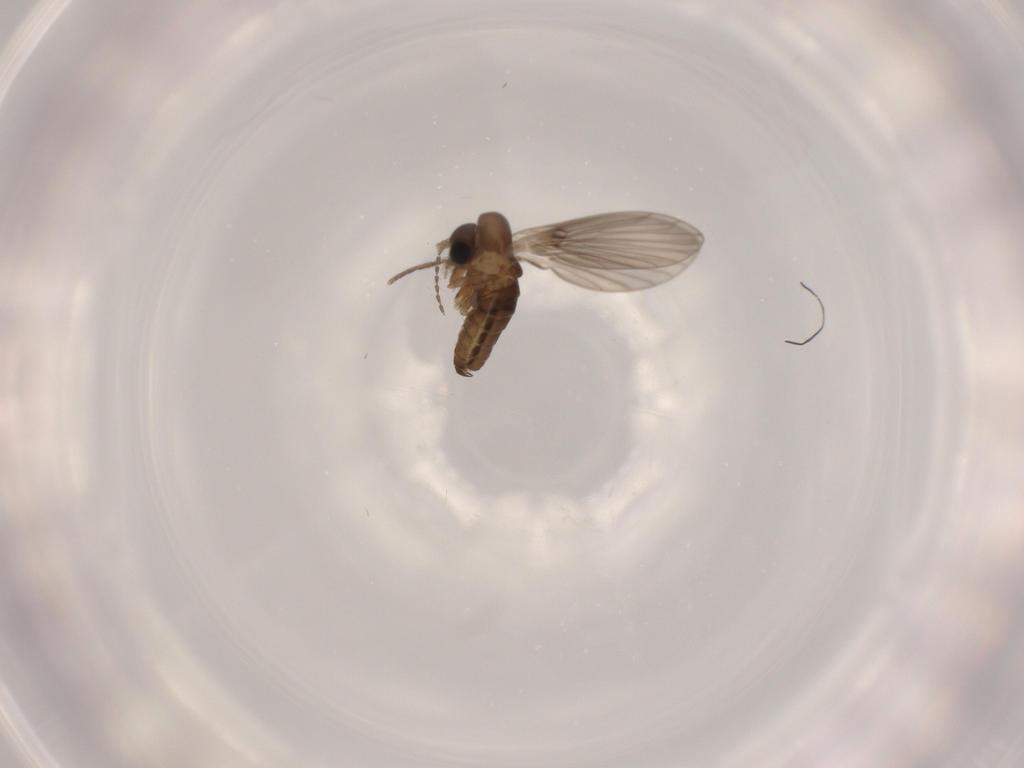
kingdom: Animalia
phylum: Arthropoda
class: Insecta
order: Diptera
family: Psychodidae
